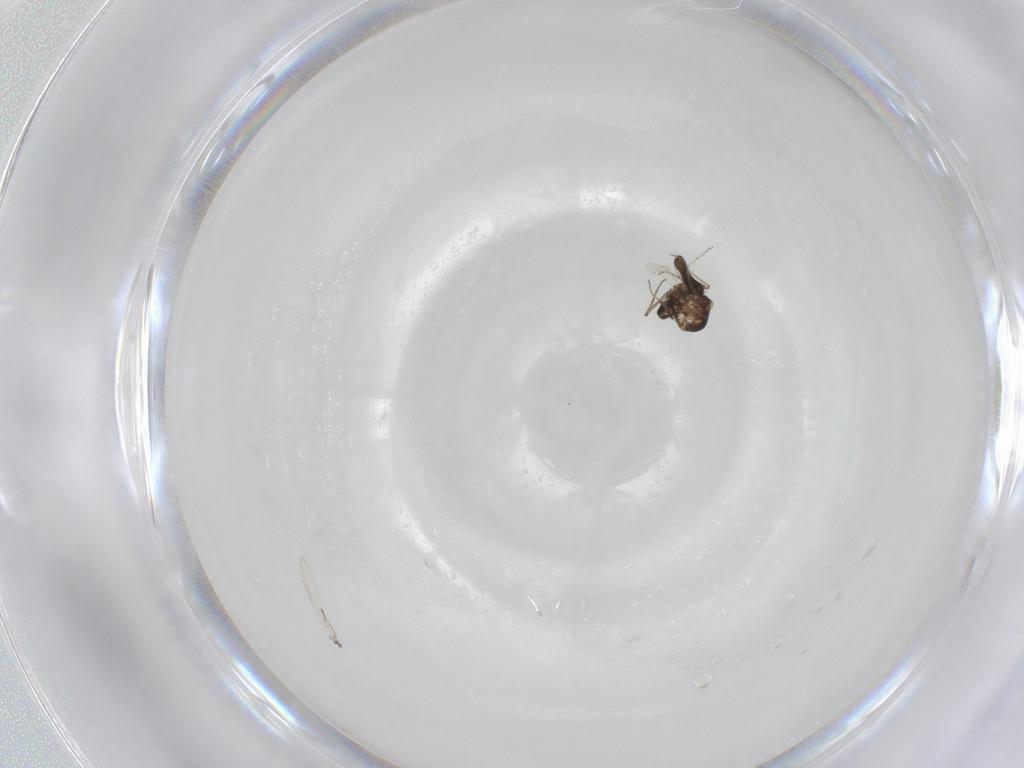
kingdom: Animalia
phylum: Arthropoda
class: Insecta
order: Diptera
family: Ceratopogonidae
